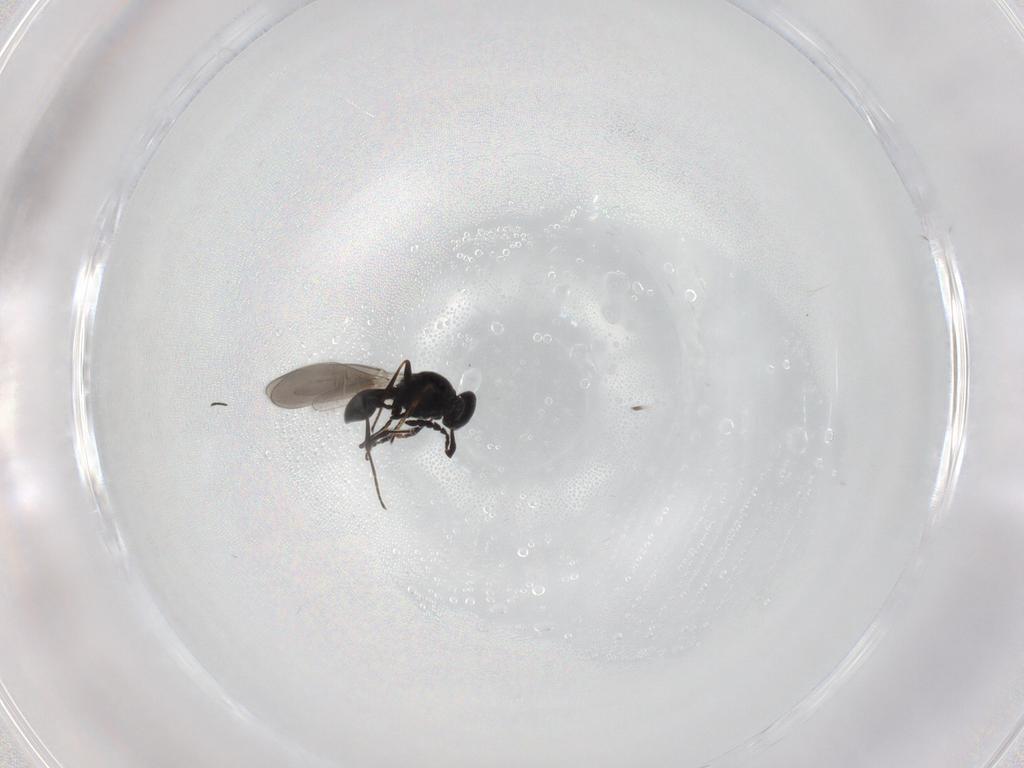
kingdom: Animalia
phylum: Arthropoda
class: Insecta
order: Hymenoptera
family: Platygastridae
